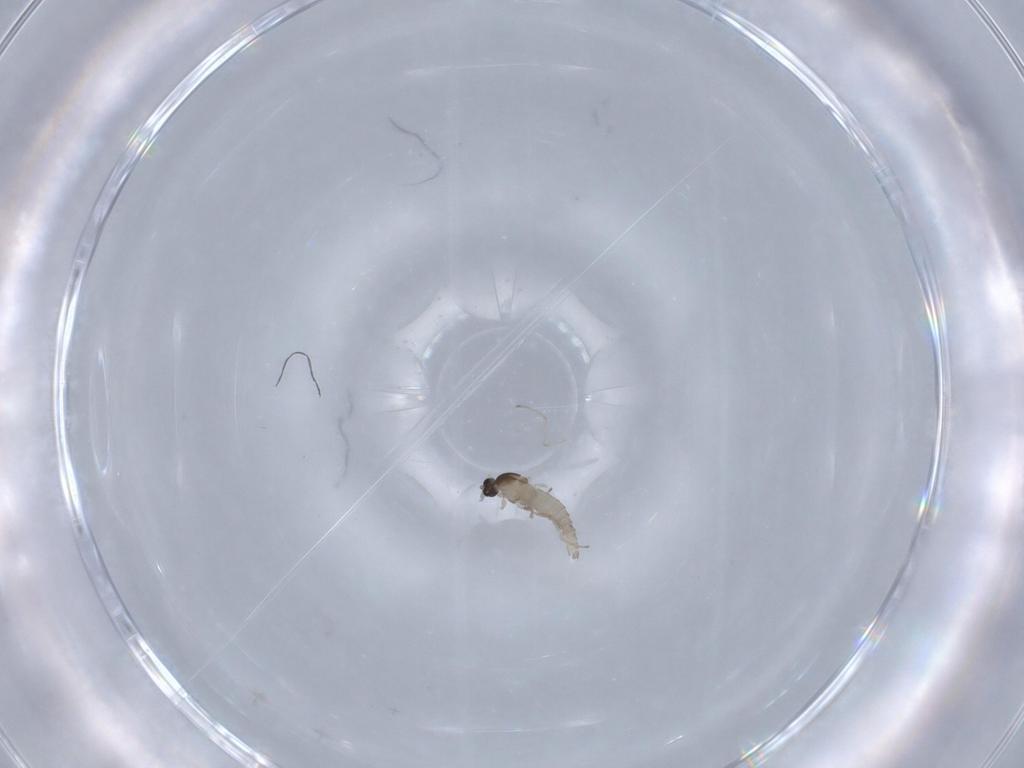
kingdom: Animalia
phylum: Arthropoda
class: Insecta
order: Diptera
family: Cecidomyiidae
